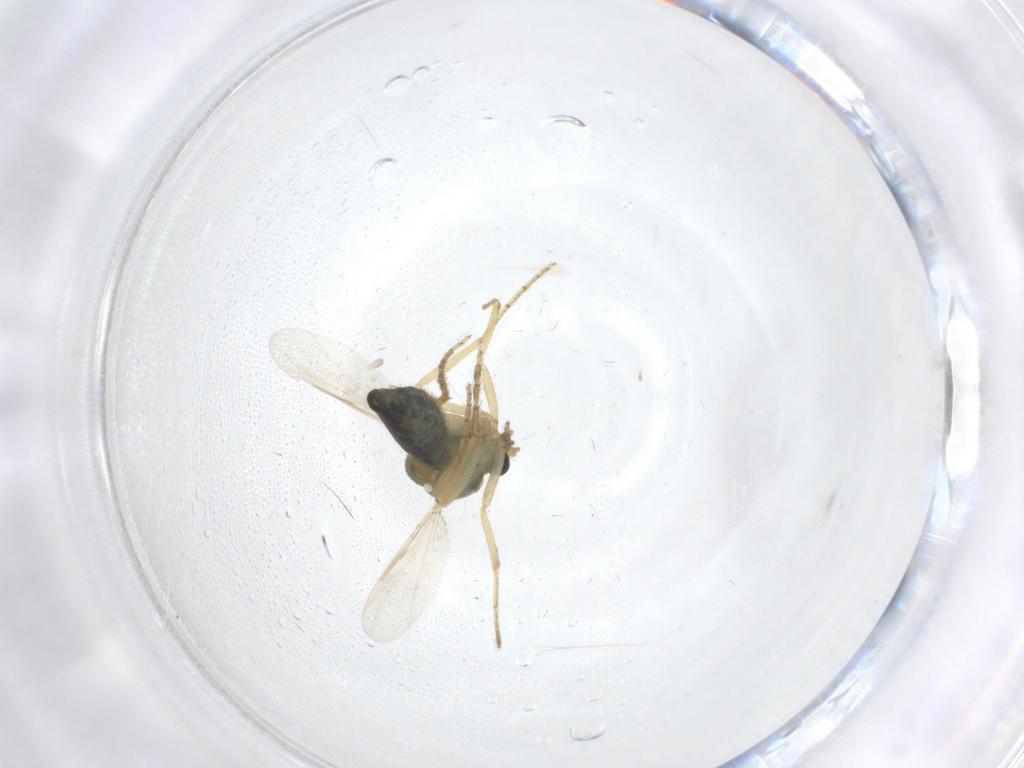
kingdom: Animalia
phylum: Arthropoda
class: Insecta
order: Diptera
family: Ceratopogonidae
